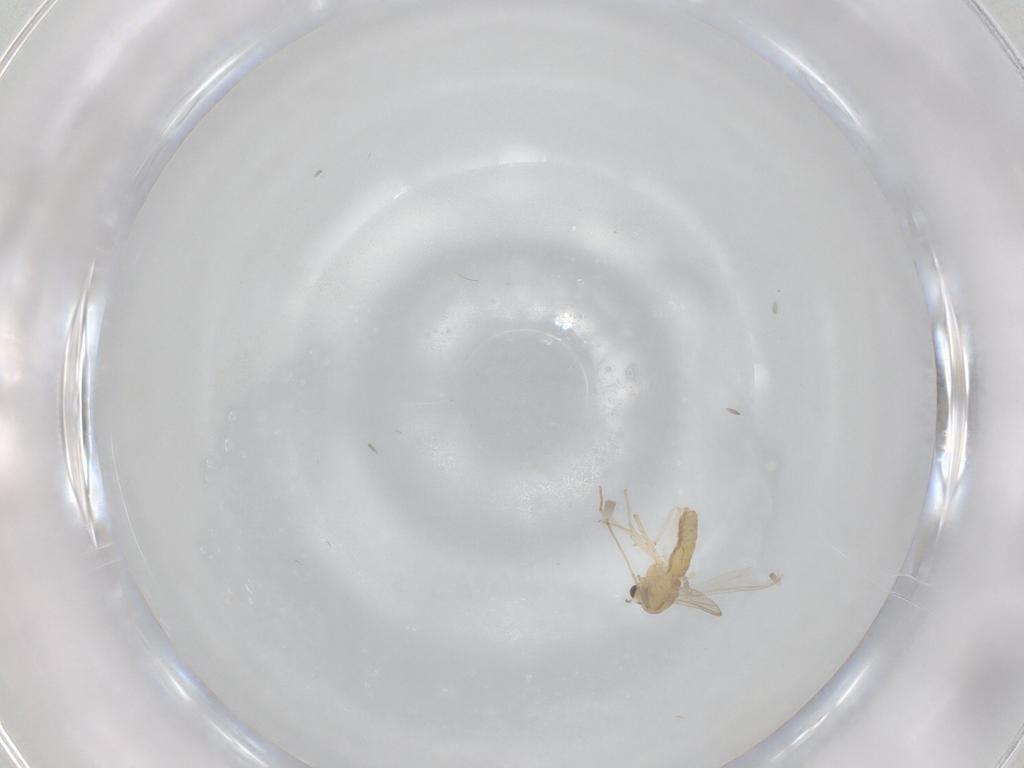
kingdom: Animalia
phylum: Arthropoda
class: Insecta
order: Diptera
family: Chironomidae
